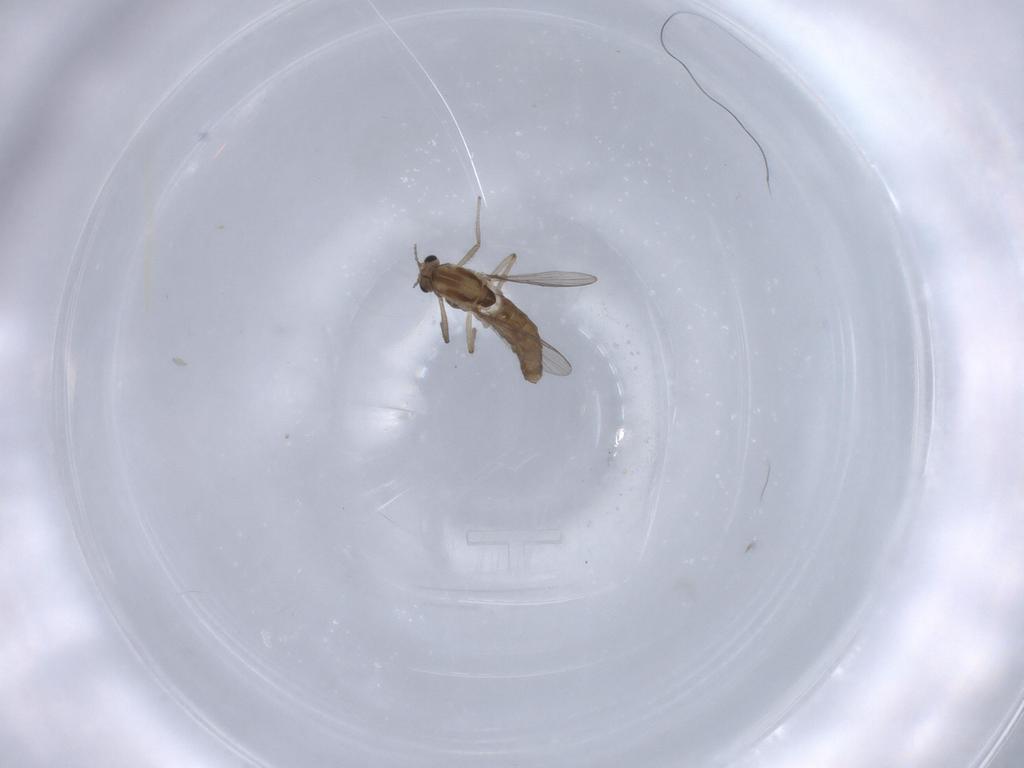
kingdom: Animalia
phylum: Arthropoda
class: Insecta
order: Diptera
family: Chironomidae
